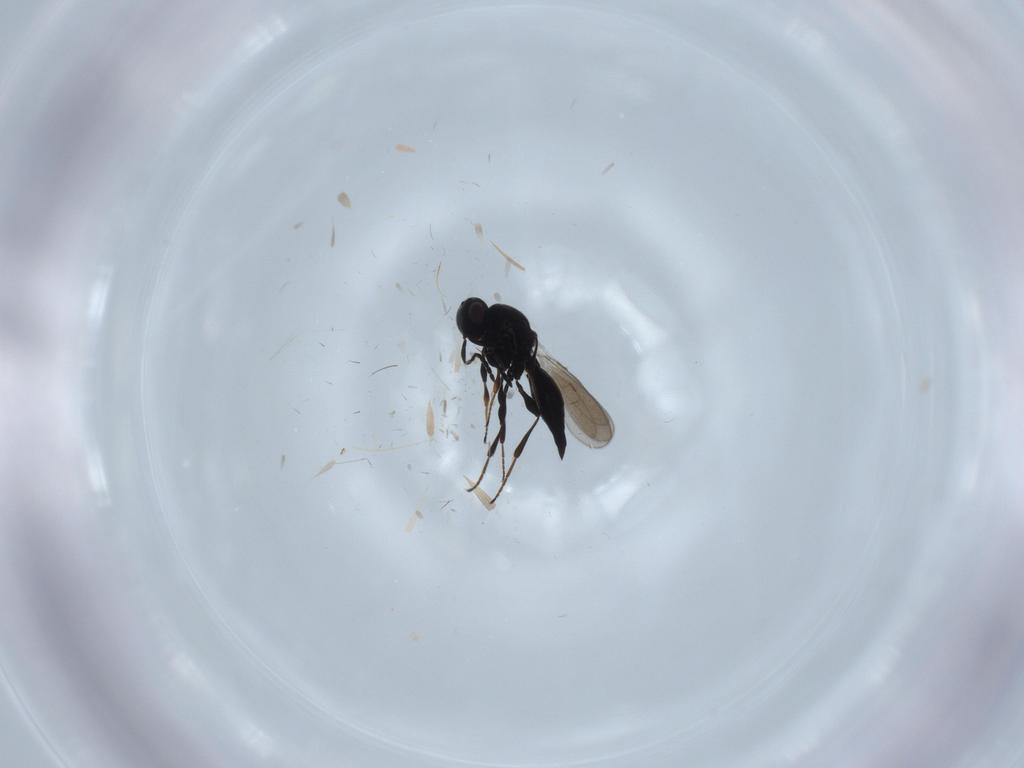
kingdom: Animalia
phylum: Arthropoda
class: Insecta
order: Hymenoptera
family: Platygastridae
